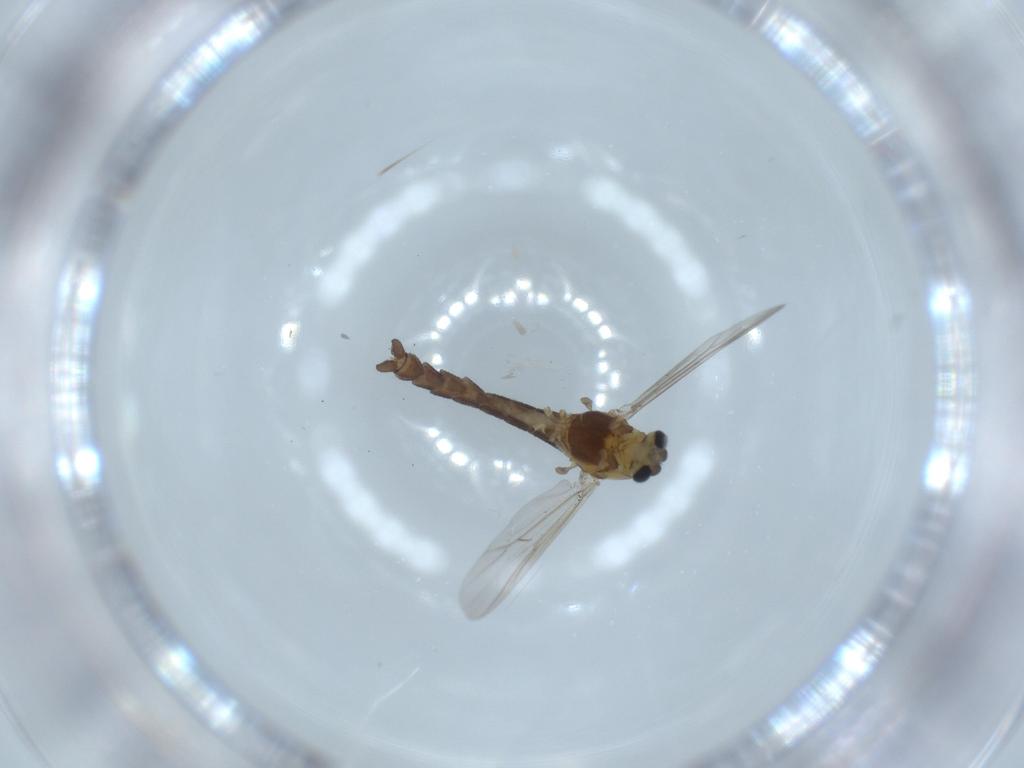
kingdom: Animalia
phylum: Arthropoda
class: Insecta
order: Diptera
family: Chironomidae
